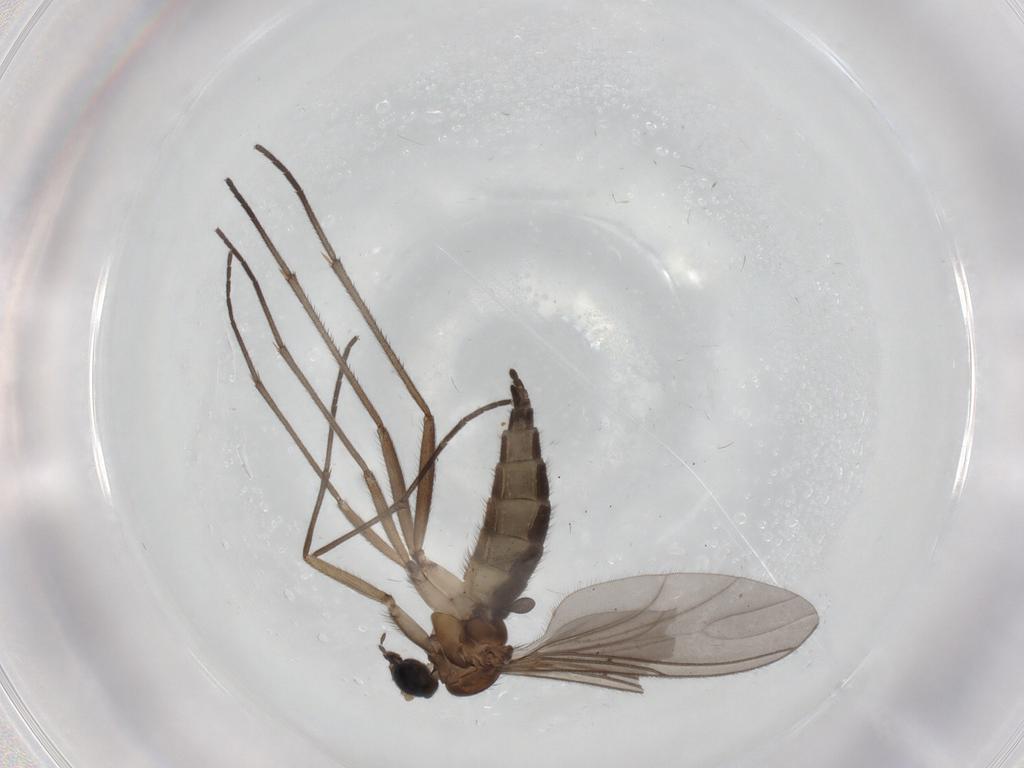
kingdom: Animalia
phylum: Arthropoda
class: Insecta
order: Diptera
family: Sciaridae
